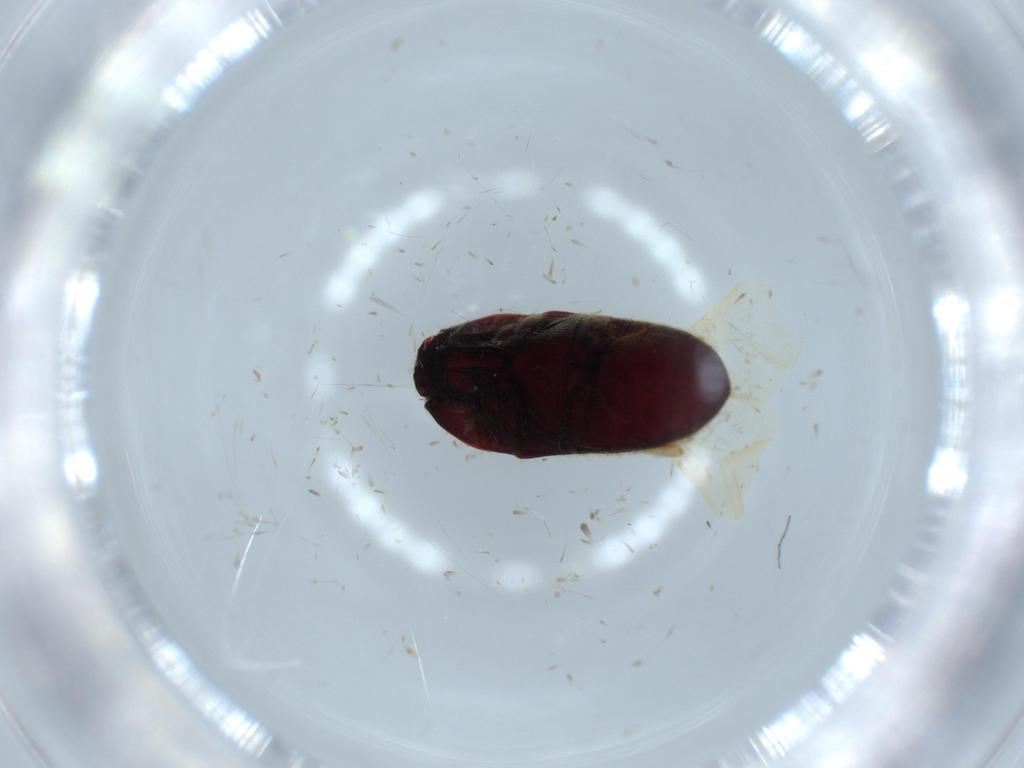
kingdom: Animalia
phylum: Arthropoda
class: Insecta
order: Coleoptera
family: Throscidae
